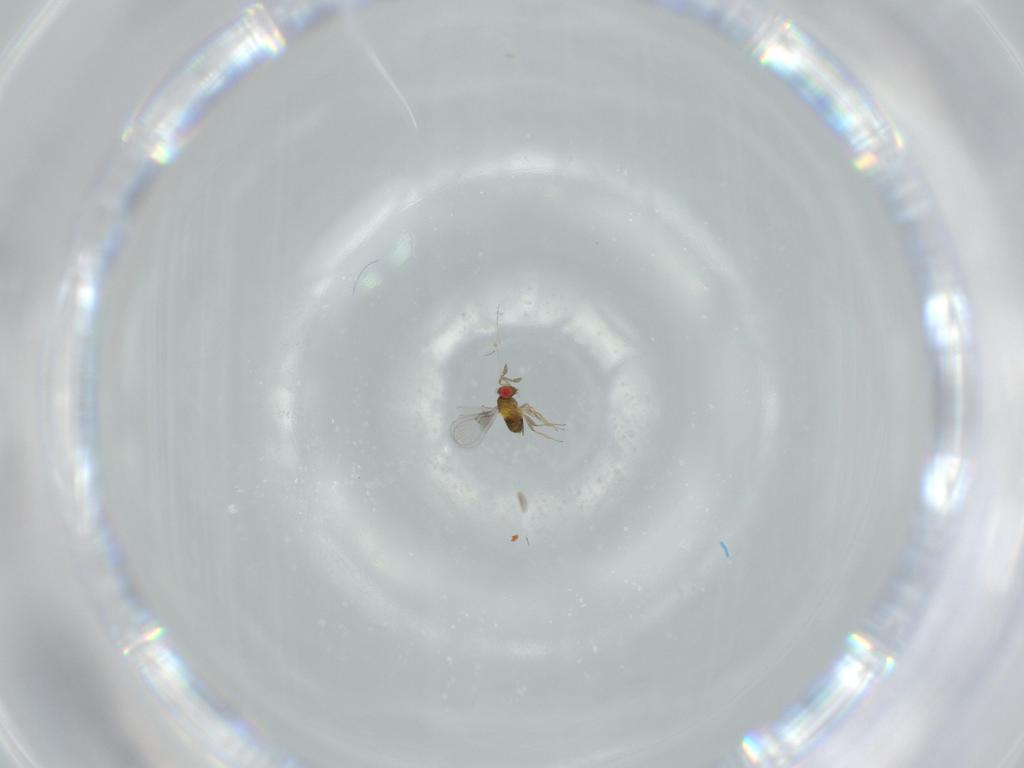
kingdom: Animalia
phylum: Arthropoda
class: Insecta
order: Hymenoptera
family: Trichogrammatidae
